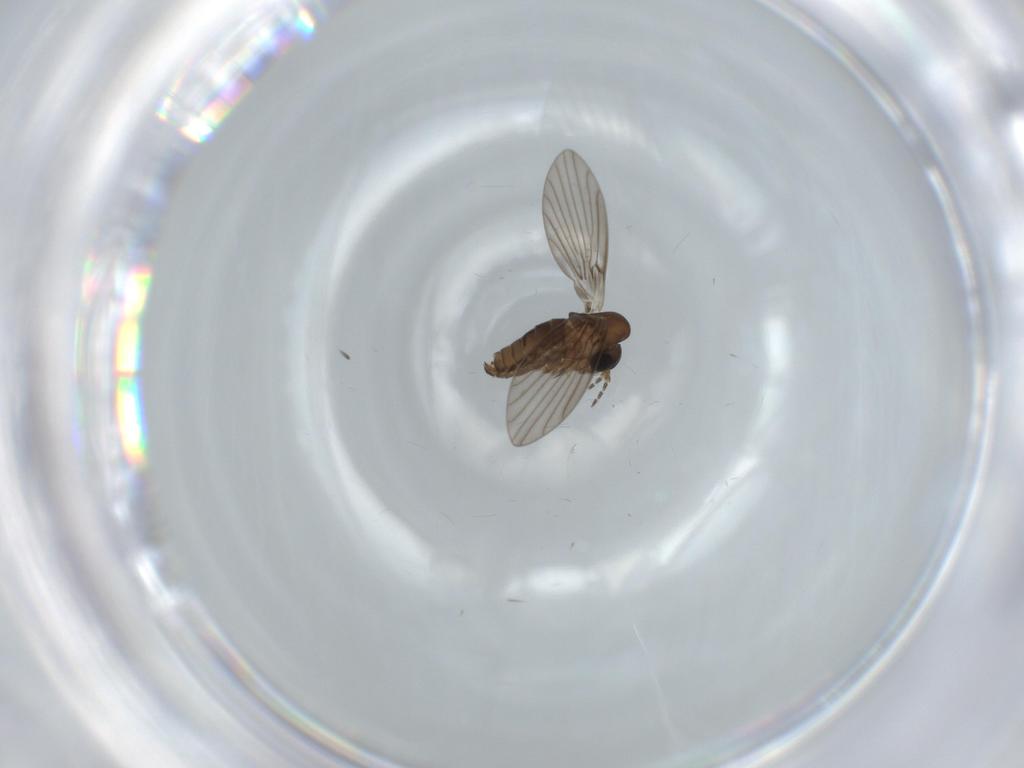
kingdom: Animalia
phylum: Arthropoda
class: Insecta
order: Diptera
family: Psychodidae
